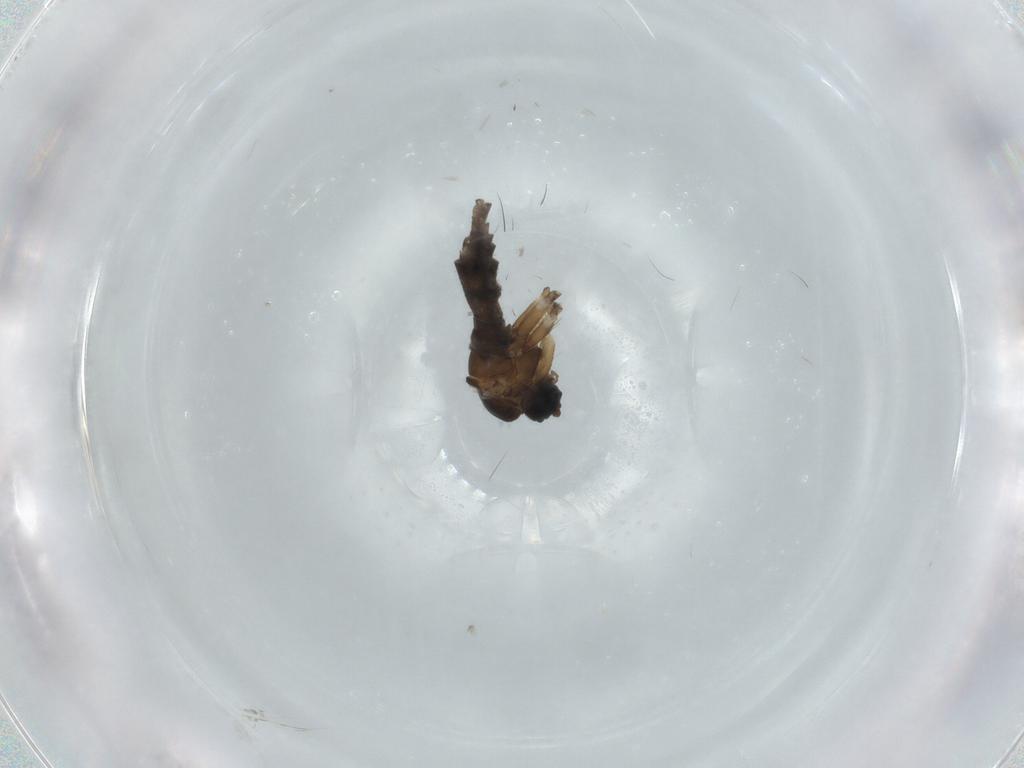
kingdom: Animalia
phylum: Arthropoda
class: Insecta
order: Diptera
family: Sciaridae
